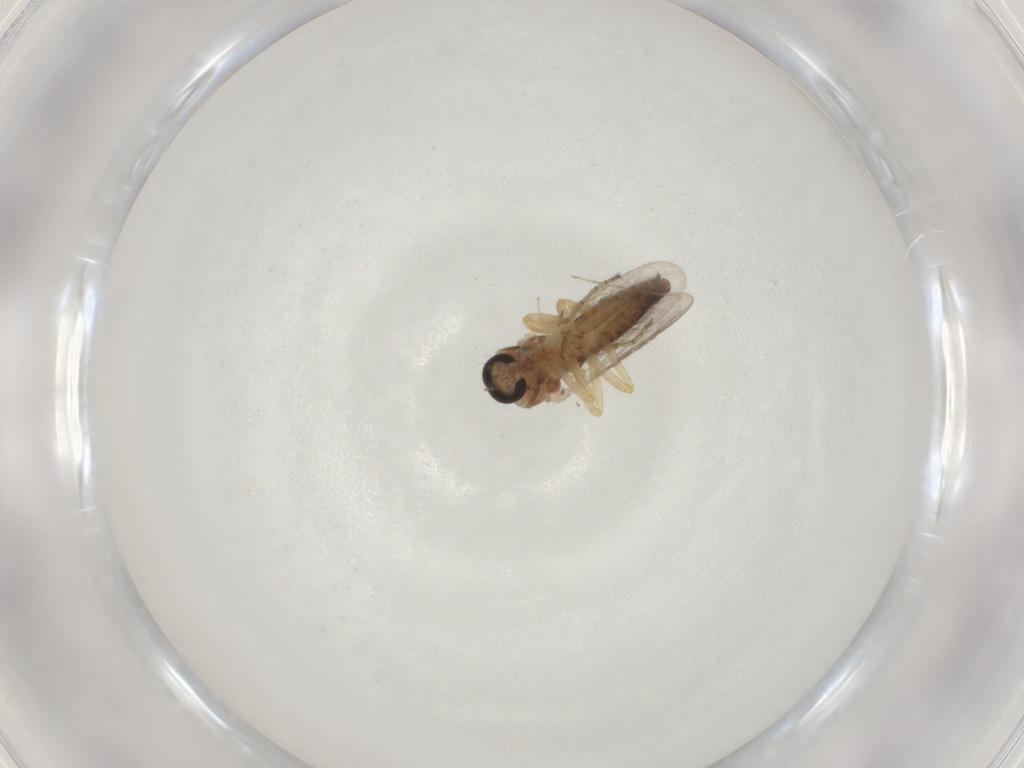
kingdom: Animalia
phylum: Arthropoda
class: Insecta
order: Diptera
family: Ceratopogonidae
